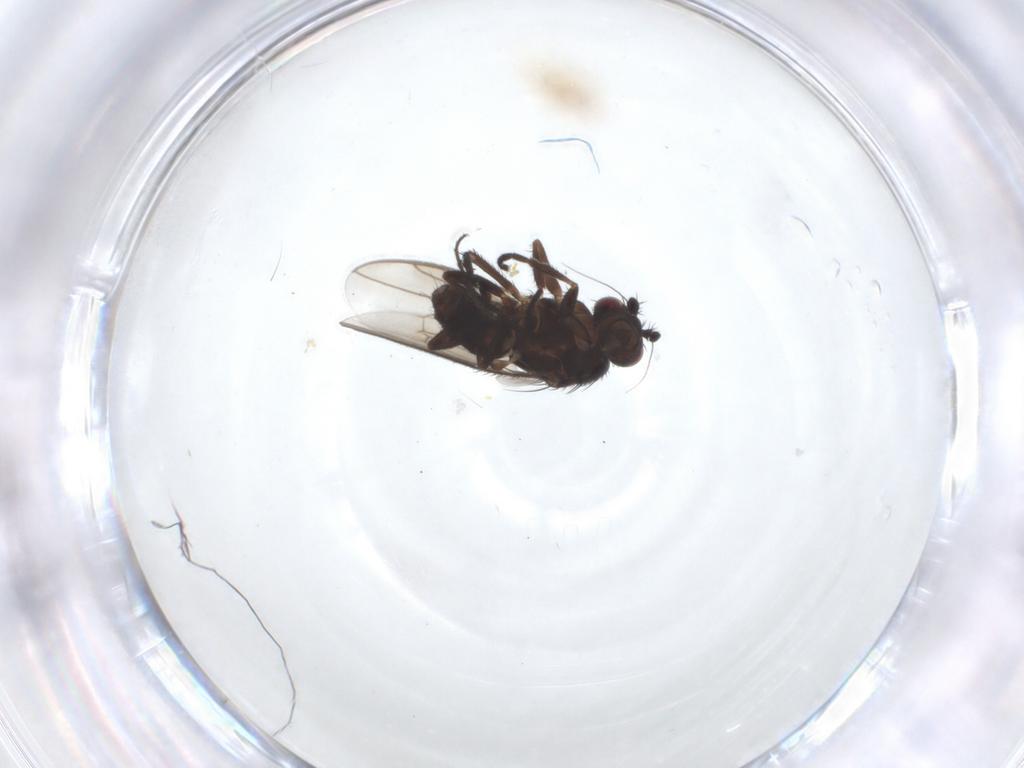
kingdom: Animalia
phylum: Arthropoda
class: Insecta
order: Diptera
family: Sphaeroceridae
